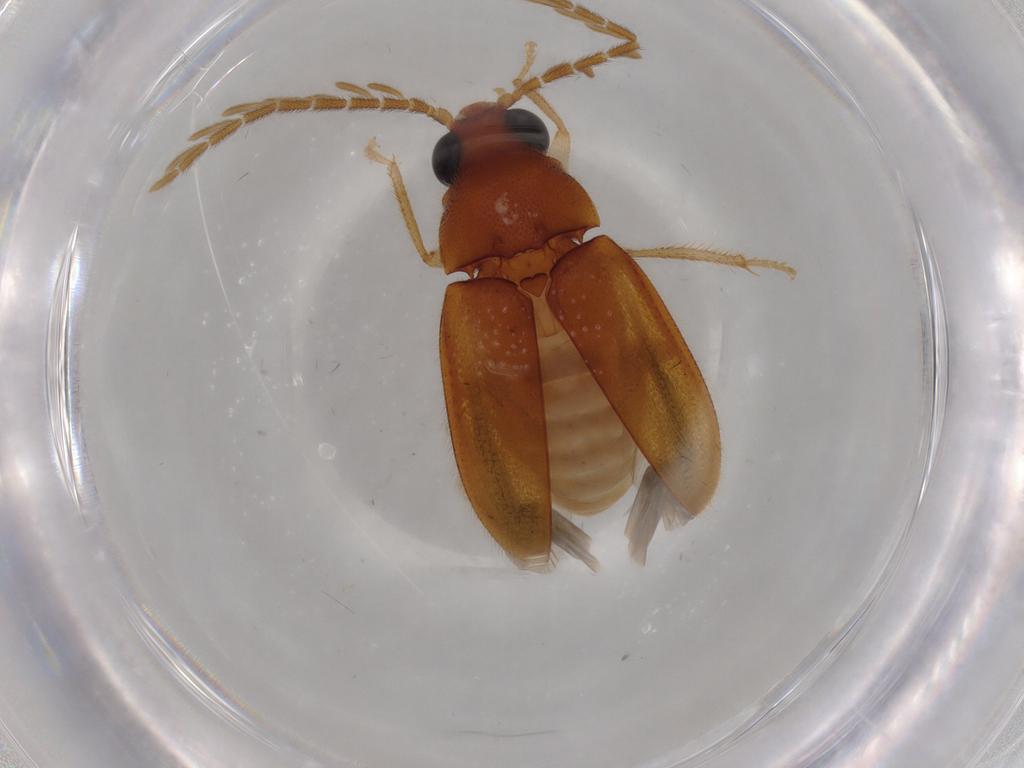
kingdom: Animalia
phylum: Arthropoda
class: Insecta
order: Coleoptera
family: Ptilodactylidae
